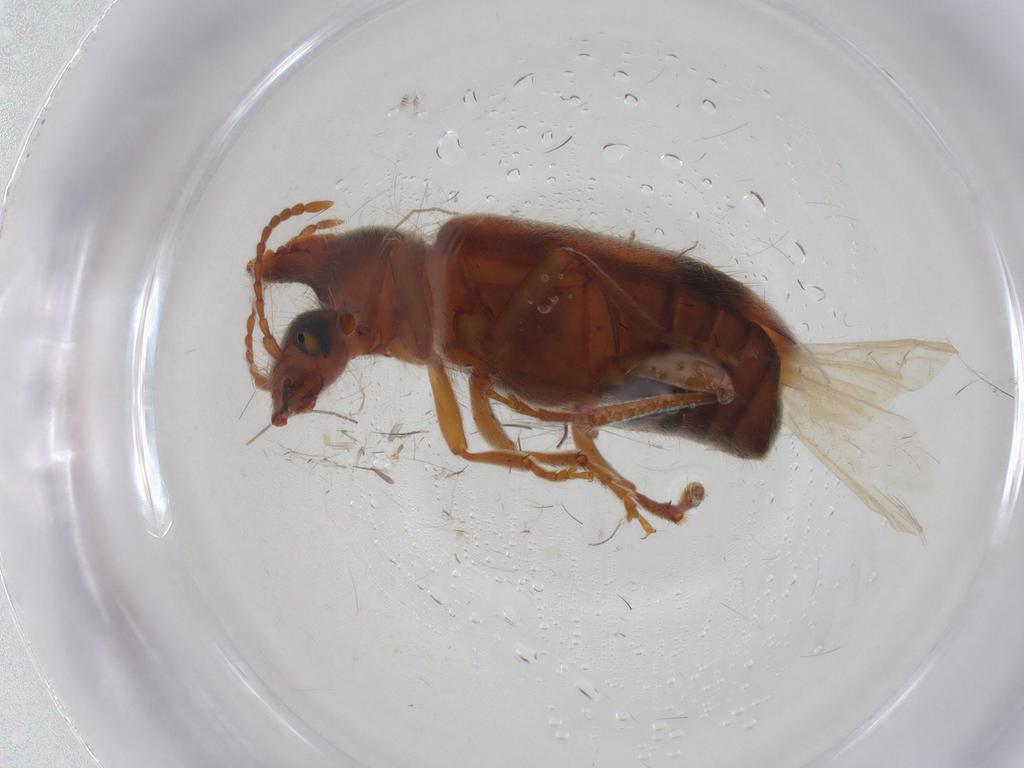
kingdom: Animalia
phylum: Arthropoda
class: Insecta
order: Coleoptera
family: Anthicidae
